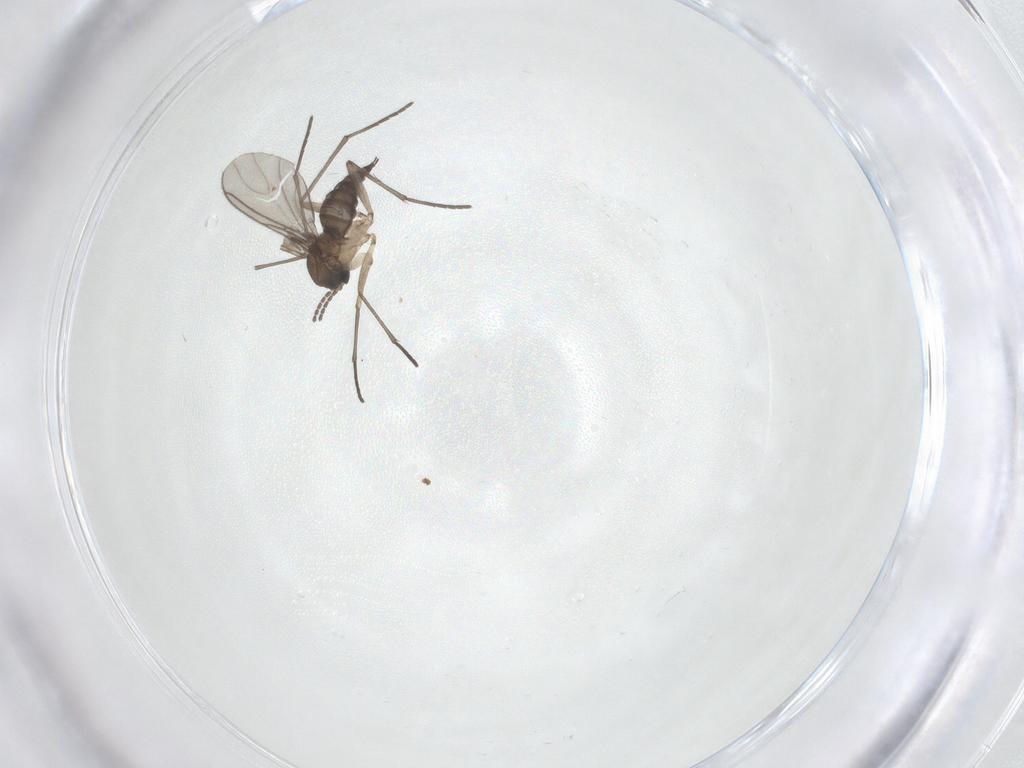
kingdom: Animalia
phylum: Arthropoda
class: Insecta
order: Diptera
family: Limoniidae
